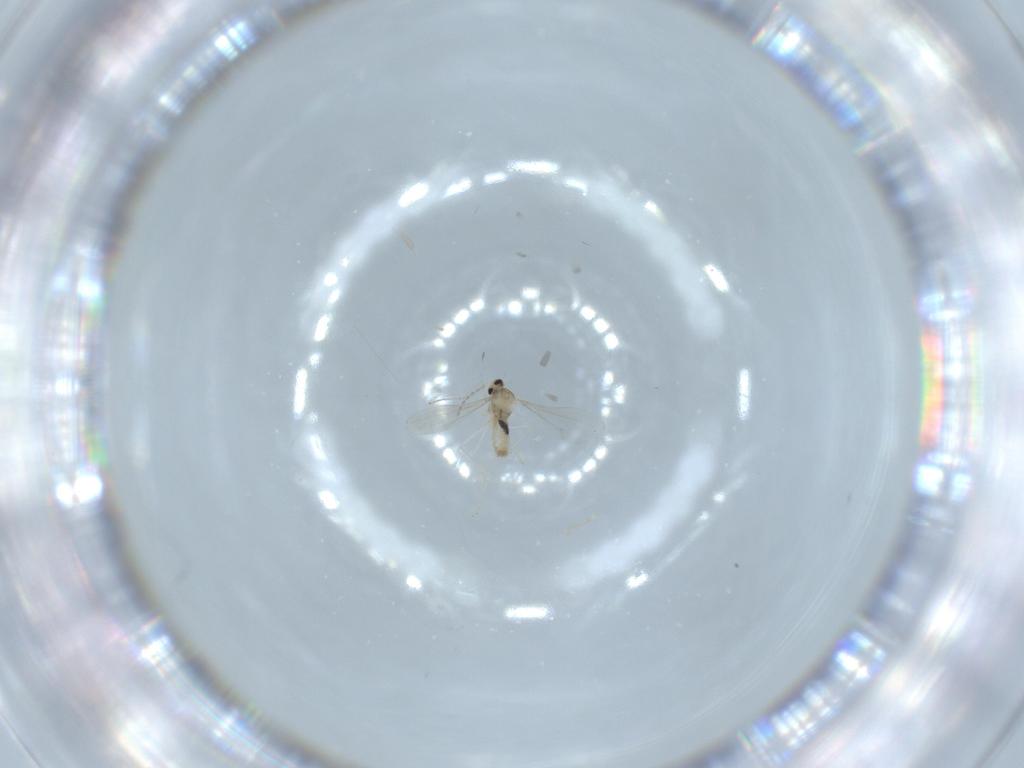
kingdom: Animalia
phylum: Arthropoda
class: Insecta
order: Diptera
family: Cecidomyiidae
